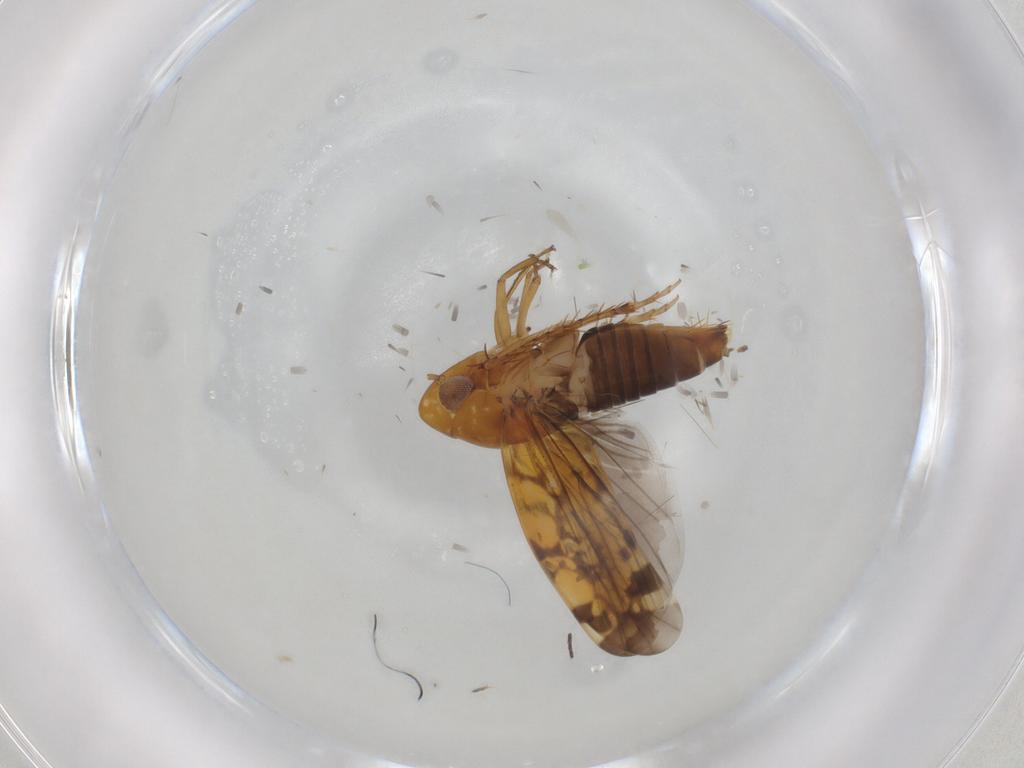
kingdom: Animalia
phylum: Arthropoda
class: Insecta
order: Hemiptera
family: Cicadellidae
